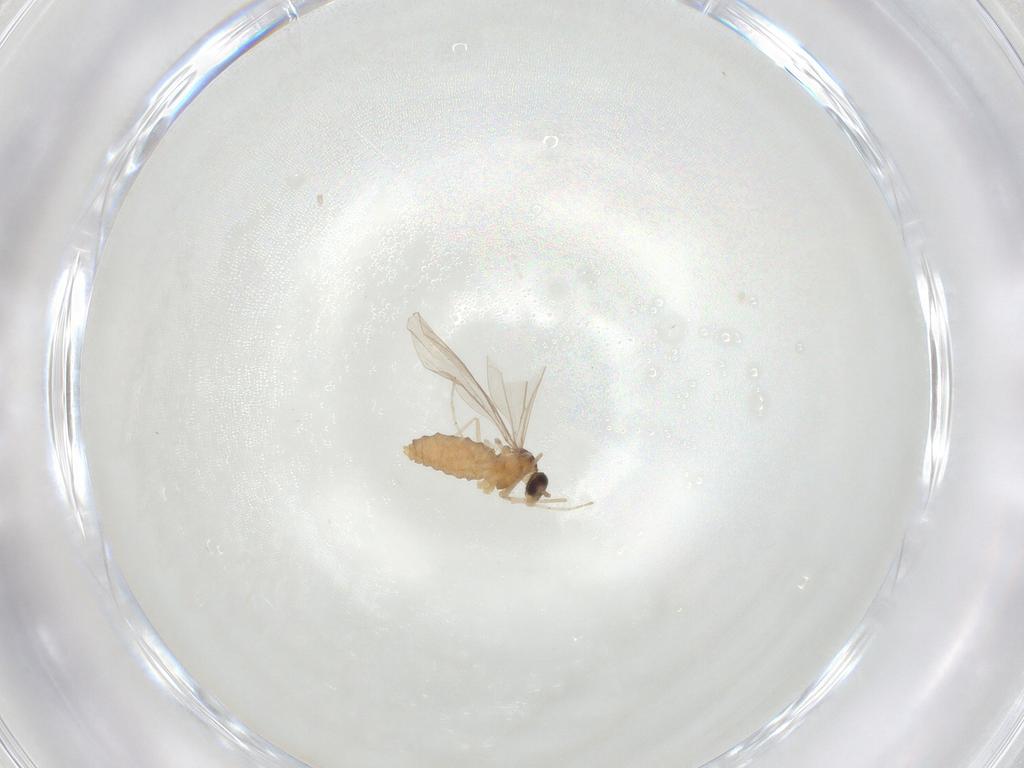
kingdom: Animalia
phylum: Arthropoda
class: Insecta
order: Diptera
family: Cecidomyiidae
